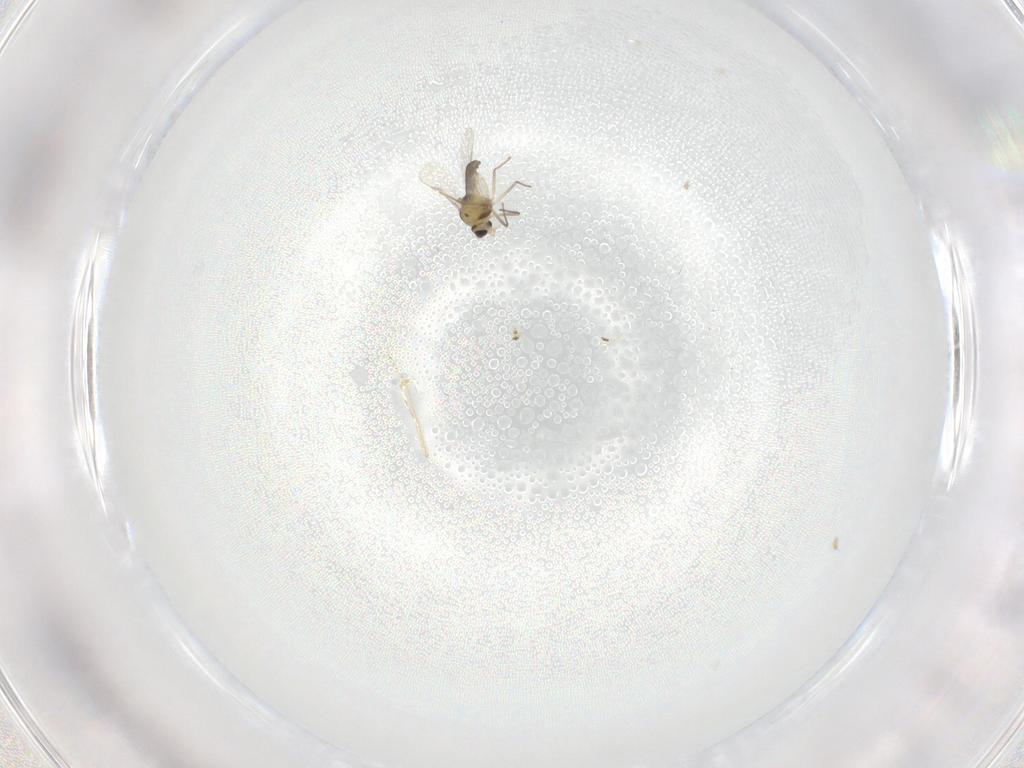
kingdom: Animalia
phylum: Arthropoda
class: Insecta
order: Diptera
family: Chironomidae
